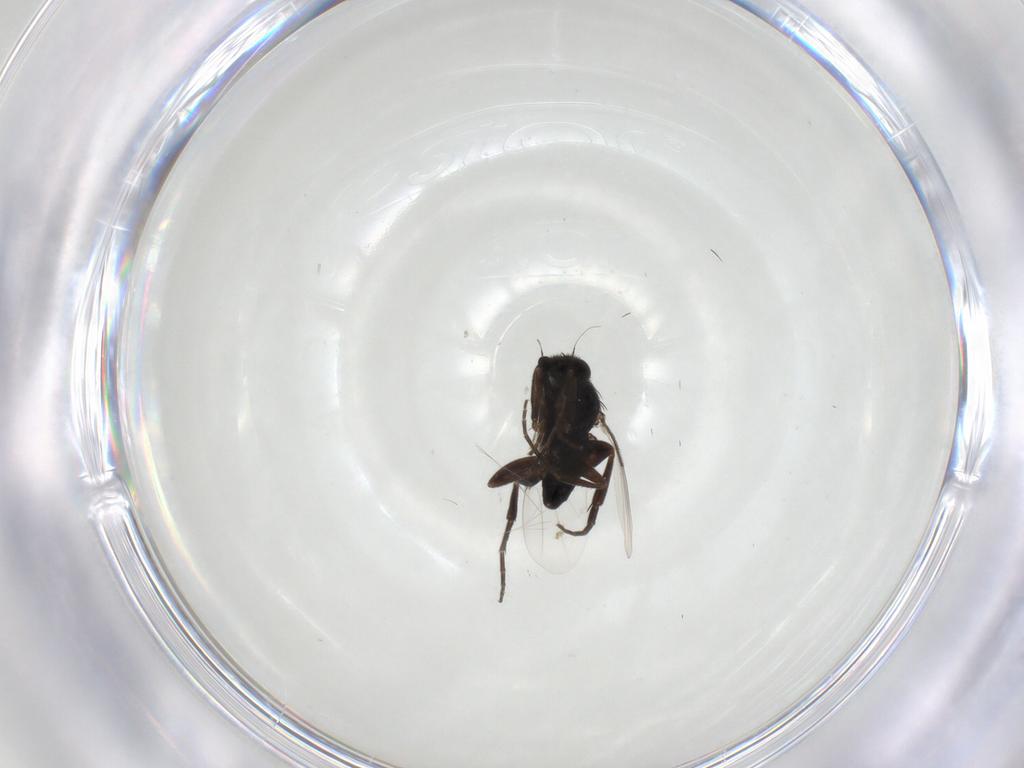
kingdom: Animalia
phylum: Arthropoda
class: Insecta
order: Diptera
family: Phoridae
